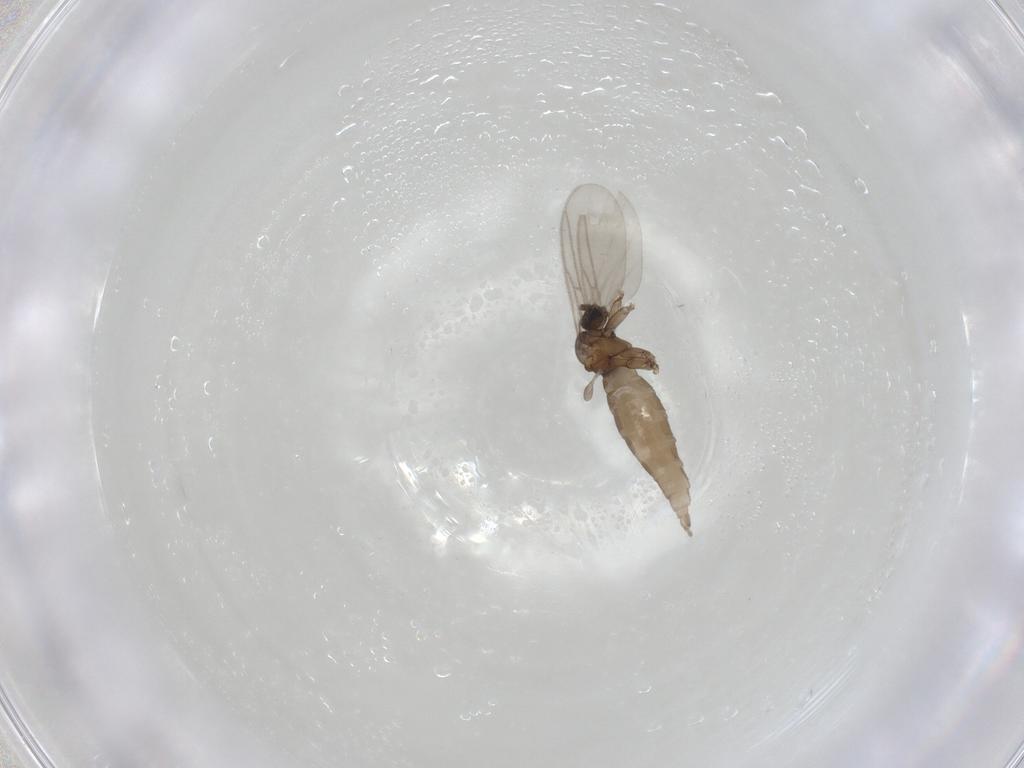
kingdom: Animalia
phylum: Arthropoda
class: Insecta
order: Diptera
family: Sciaridae
